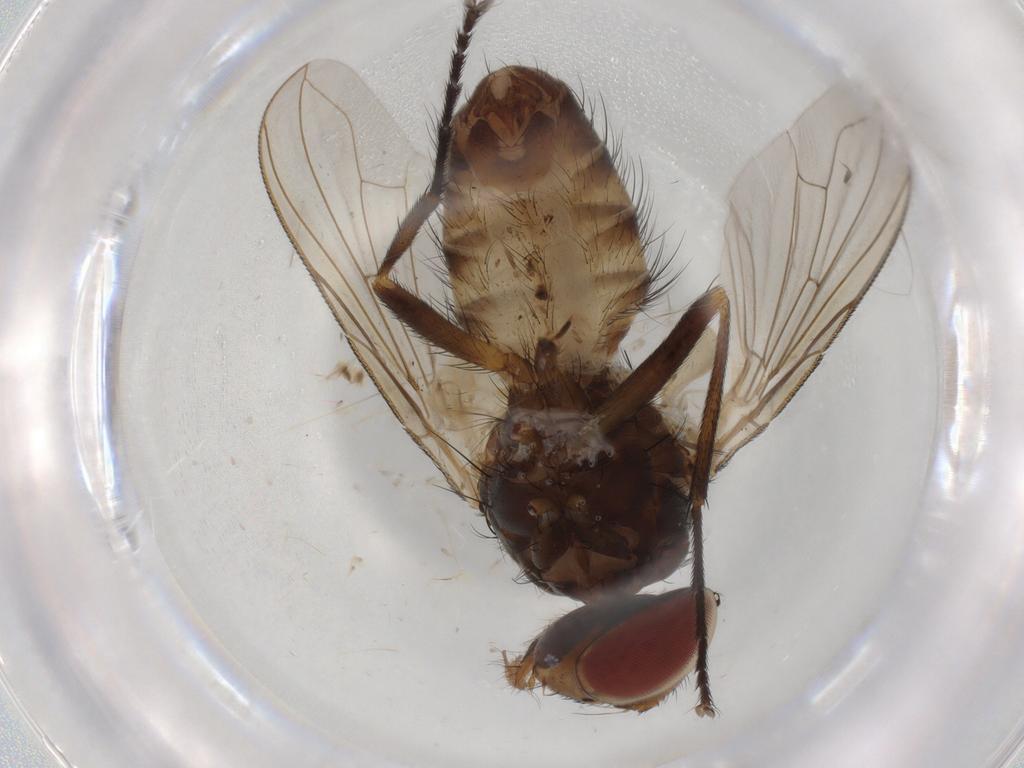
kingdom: Animalia
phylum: Arthropoda
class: Insecta
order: Diptera
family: Tachinidae
